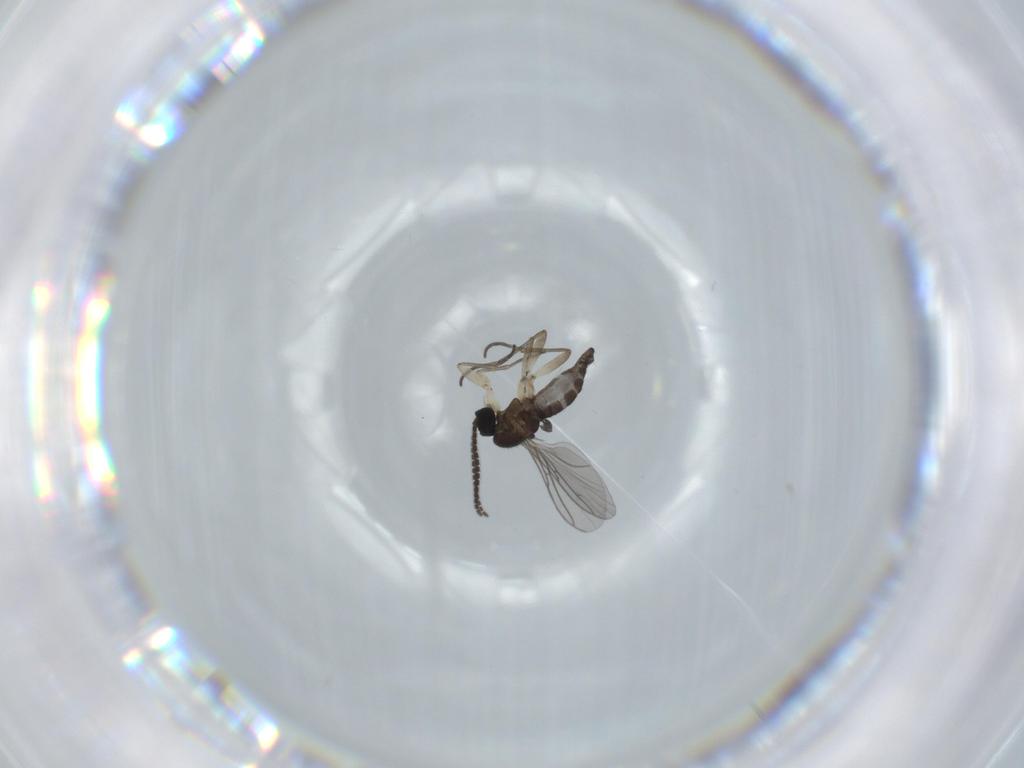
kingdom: Animalia
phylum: Arthropoda
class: Insecta
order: Diptera
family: Sciaridae
